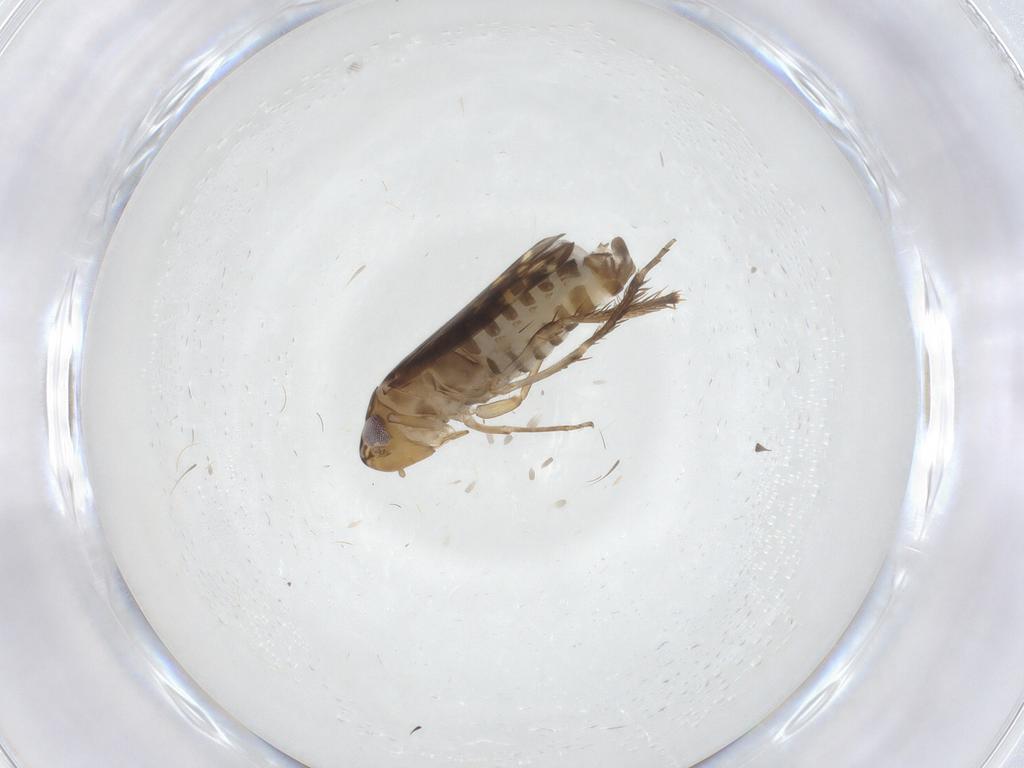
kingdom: Animalia
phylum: Arthropoda
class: Insecta
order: Hemiptera
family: Cicadellidae
